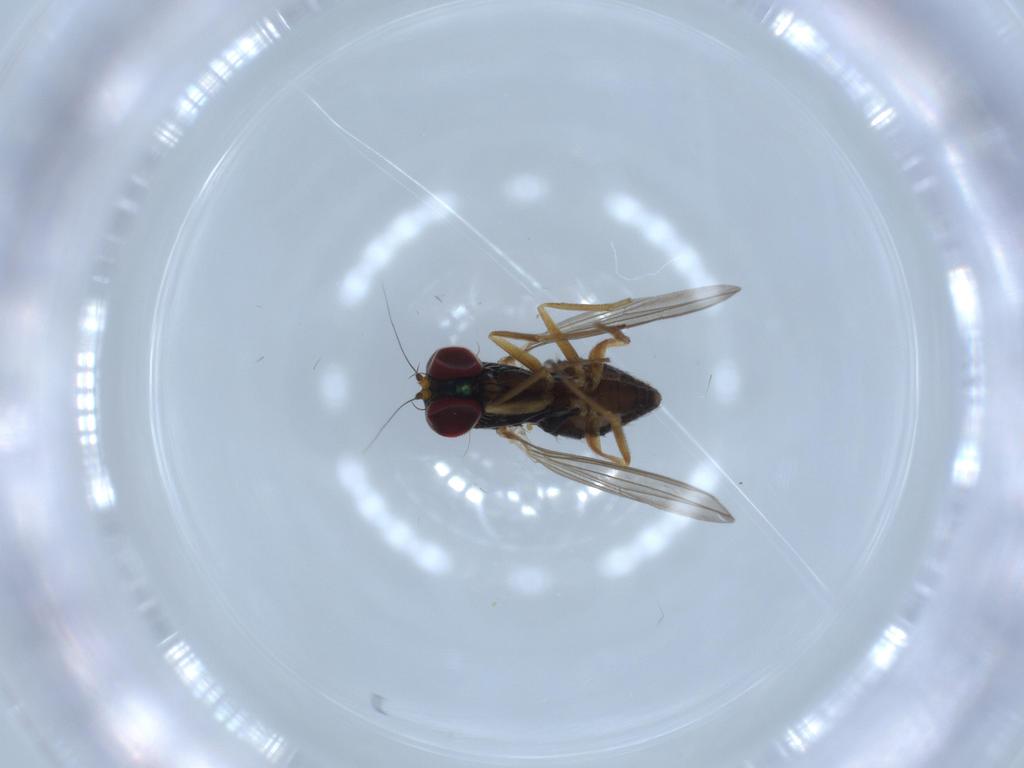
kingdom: Animalia
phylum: Arthropoda
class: Insecta
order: Diptera
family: Dolichopodidae
